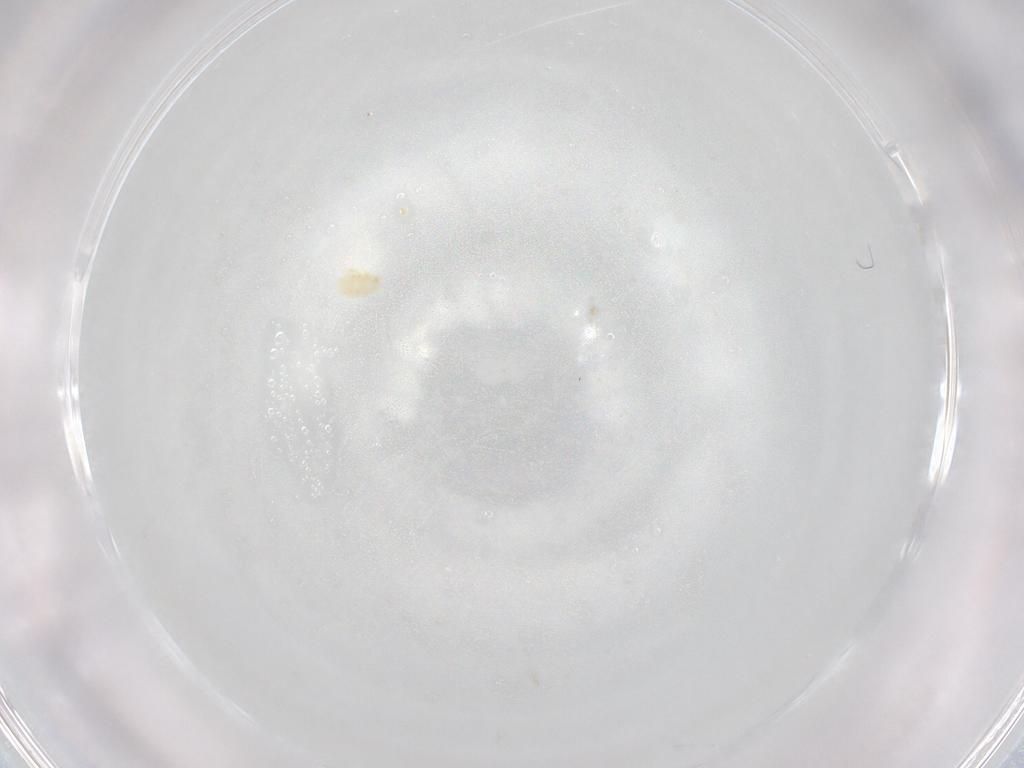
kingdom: Animalia
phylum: Arthropoda
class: Arachnida
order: Trombidiformes
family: Eupodidae
